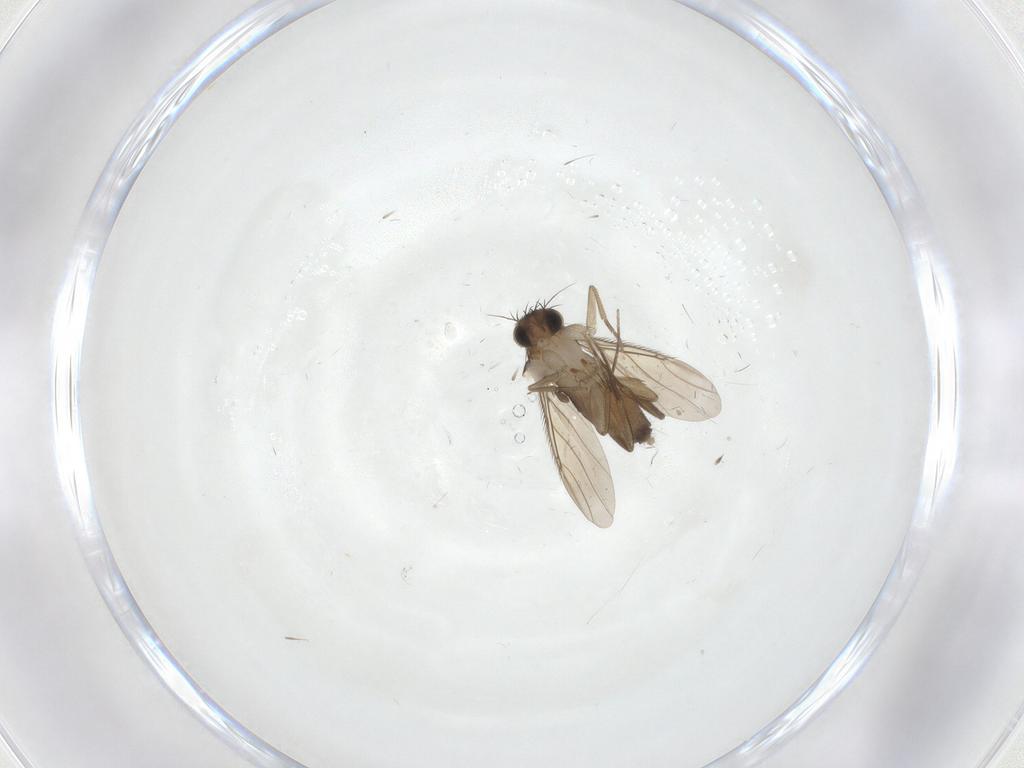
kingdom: Animalia
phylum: Arthropoda
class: Insecta
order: Diptera
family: Phoridae
